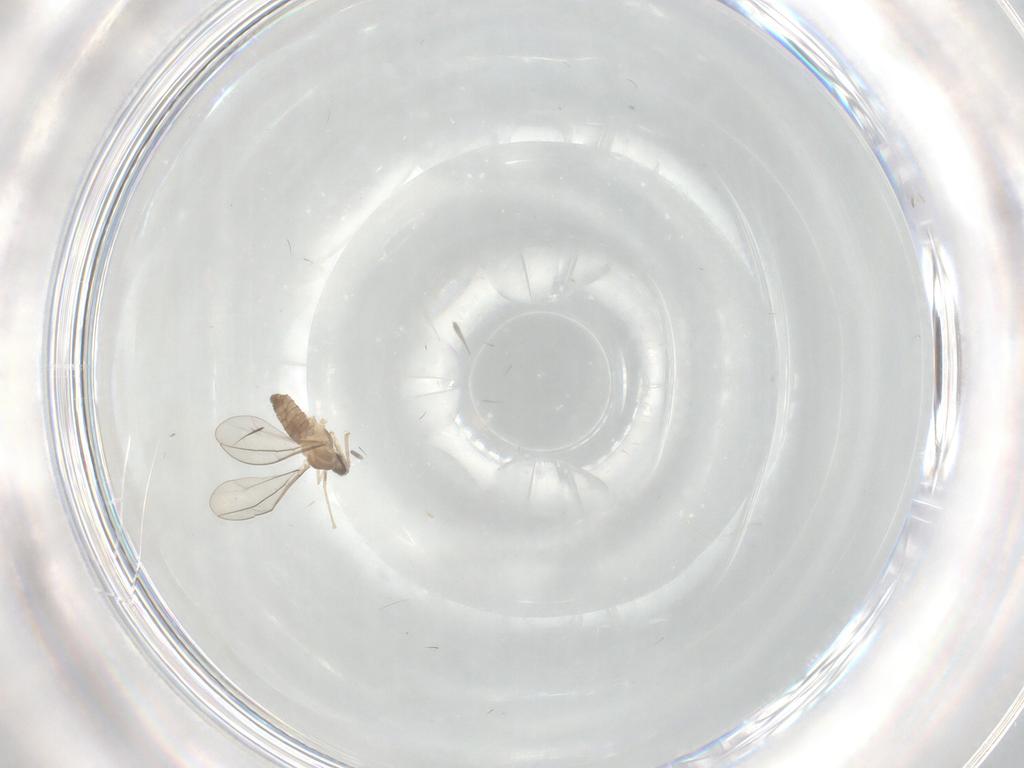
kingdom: Animalia
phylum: Arthropoda
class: Insecta
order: Diptera
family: Cecidomyiidae
